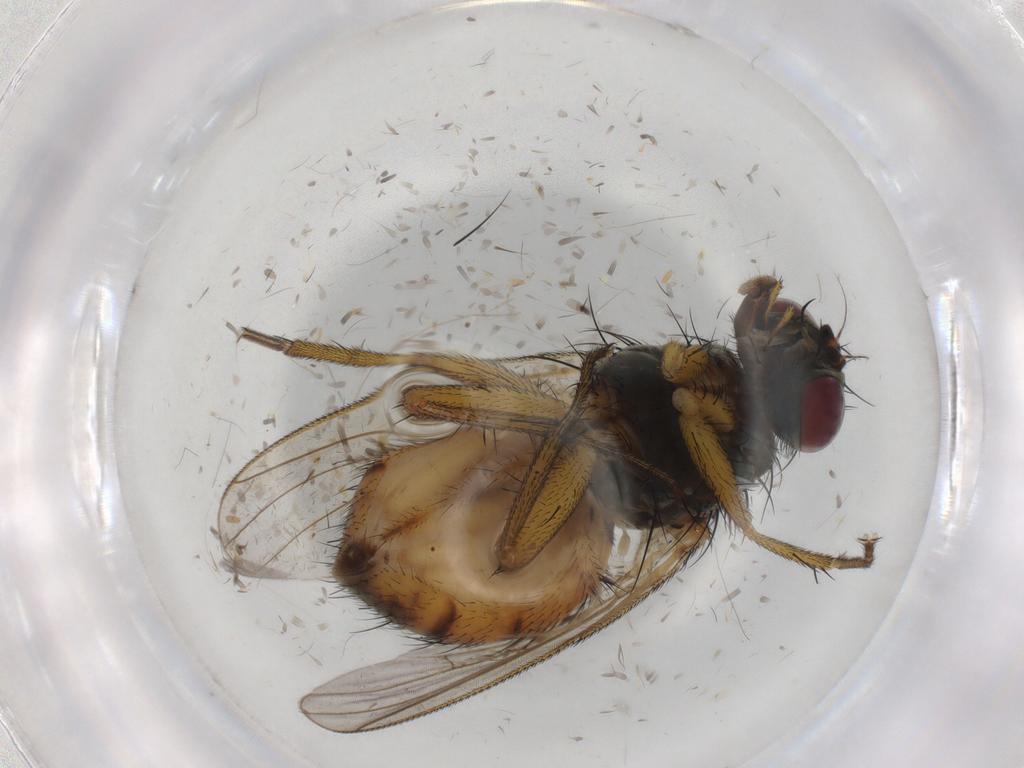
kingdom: Animalia
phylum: Arthropoda
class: Insecta
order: Diptera
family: Muscidae
